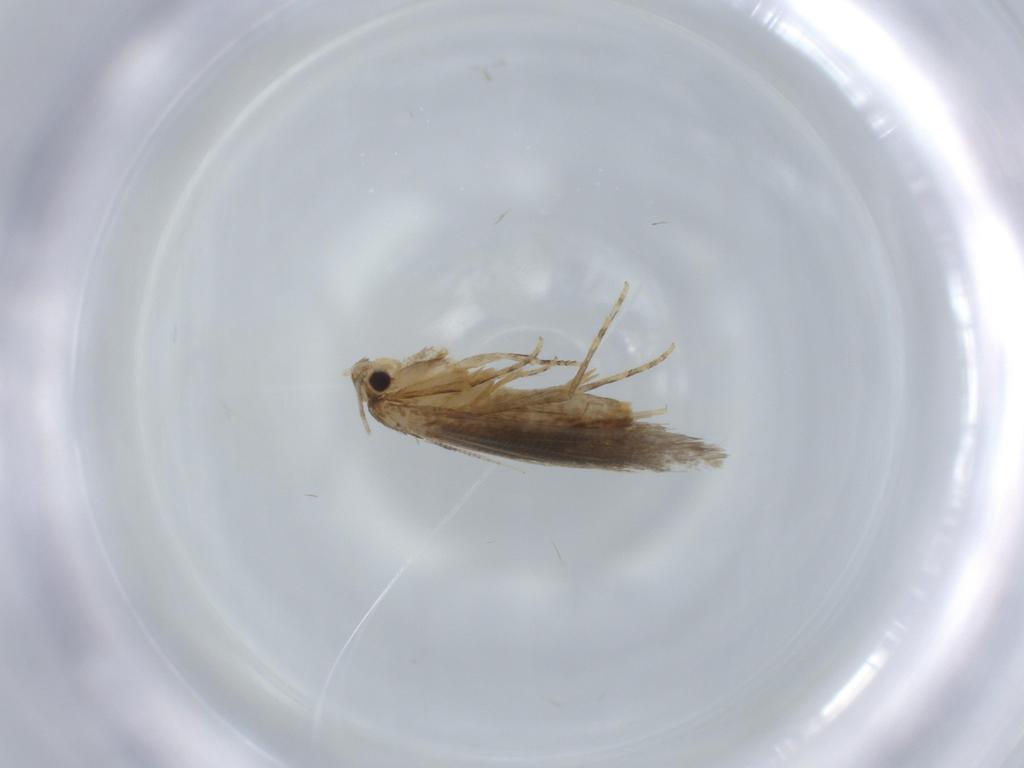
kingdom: Animalia
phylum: Arthropoda
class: Insecta
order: Lepidoptera
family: Tineidae
